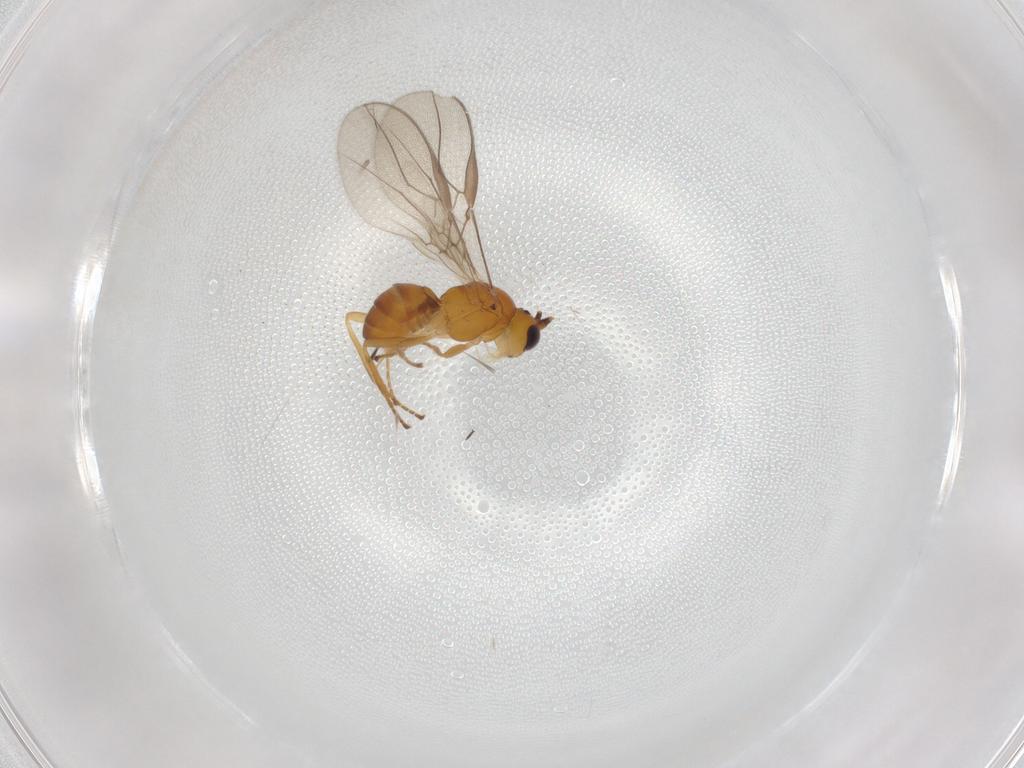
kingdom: Animalia
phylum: Arthropoda
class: Insecta
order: Hymenoptera
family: Braconidae
